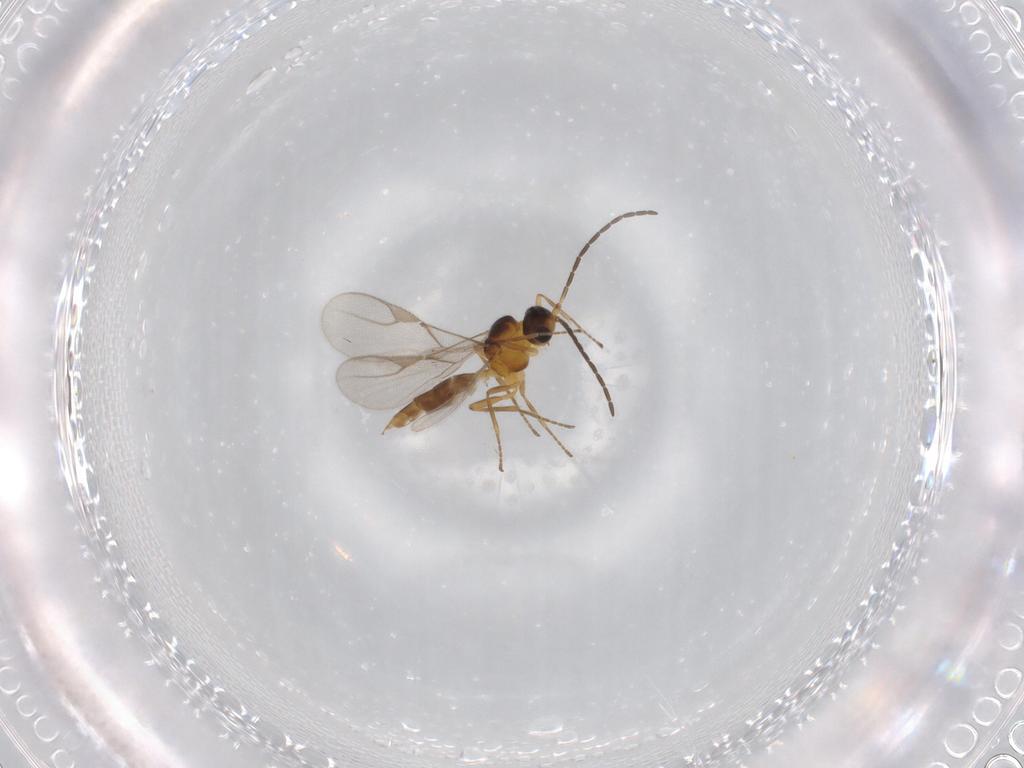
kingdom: Animalia
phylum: Arthropoda
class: Insecta
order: Hymenoptera
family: Braconidae
